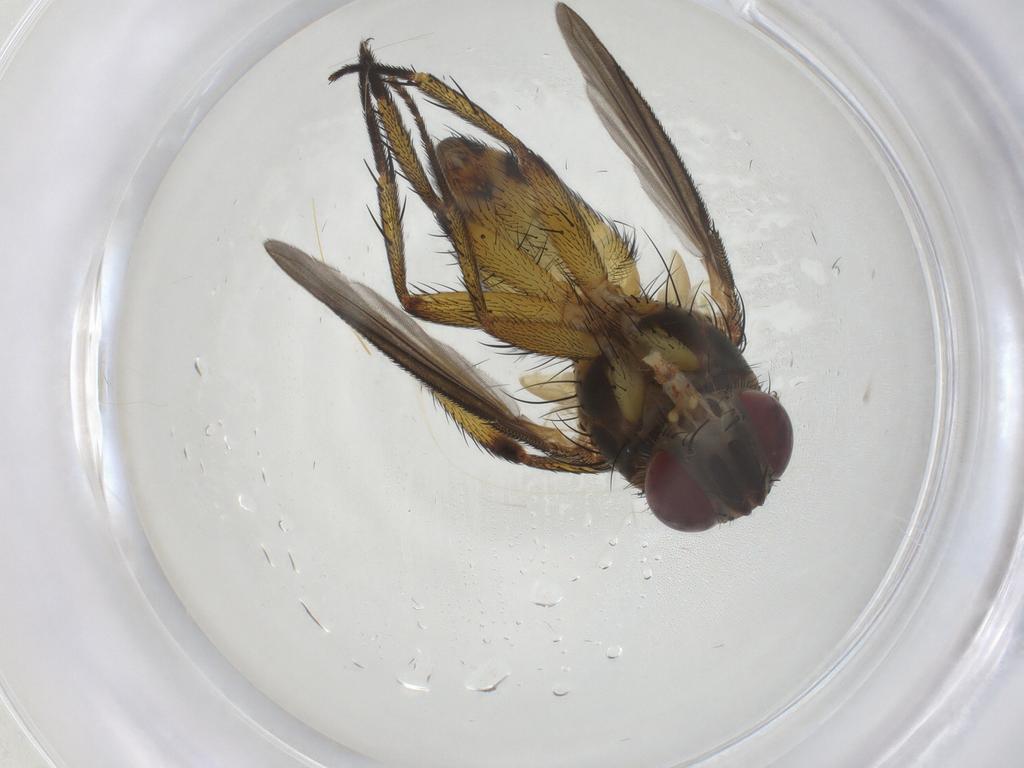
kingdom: Animalia
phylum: Arthropoda
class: Insecta
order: Diptera
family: Tachinidae
